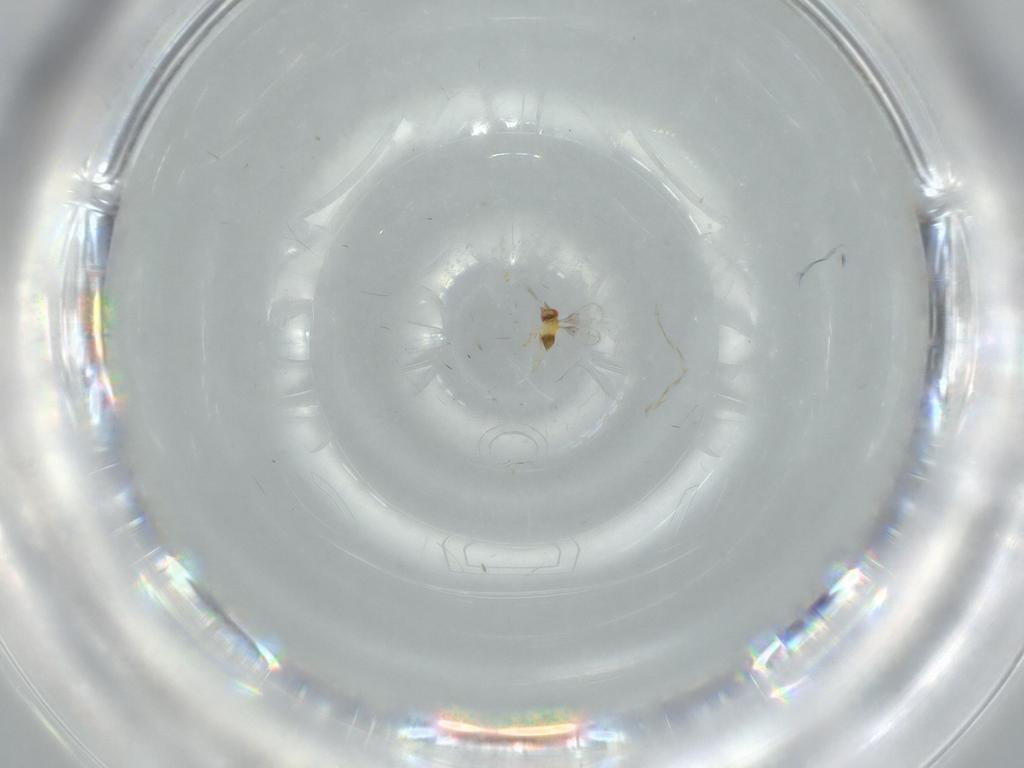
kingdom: Animalia
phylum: Arthropoda
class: Insecta
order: Hymenoptera
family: Trichogrammatidae
